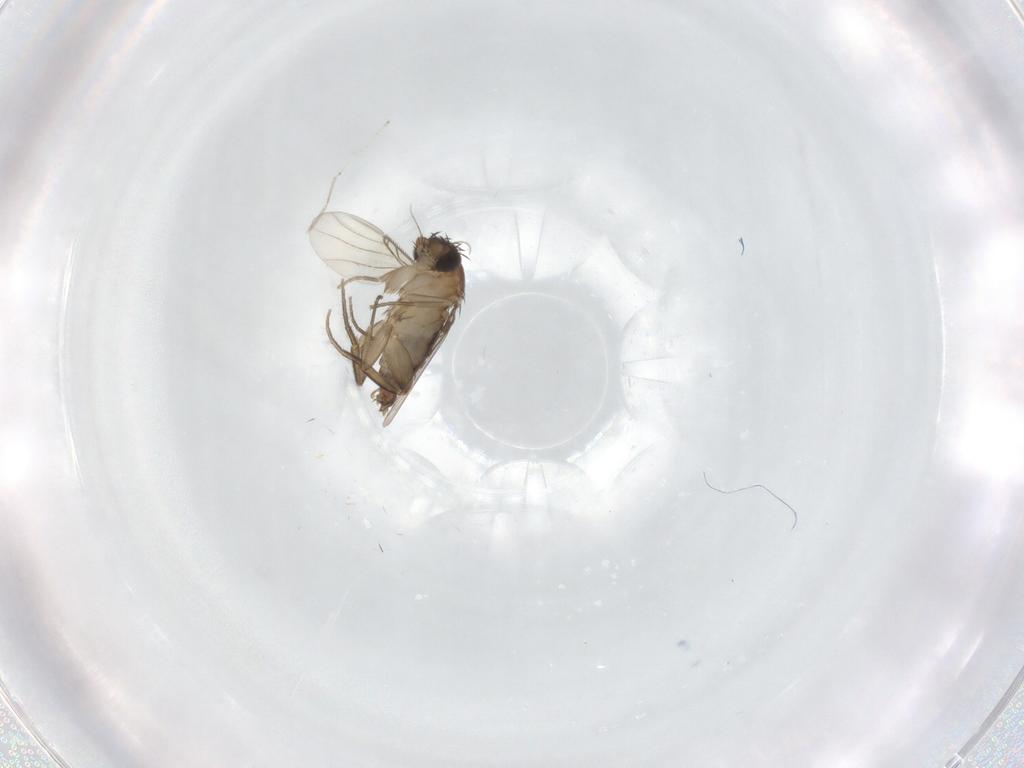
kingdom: Animalia
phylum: Arthropoda
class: Insecta
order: Diptera
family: Phoridae
